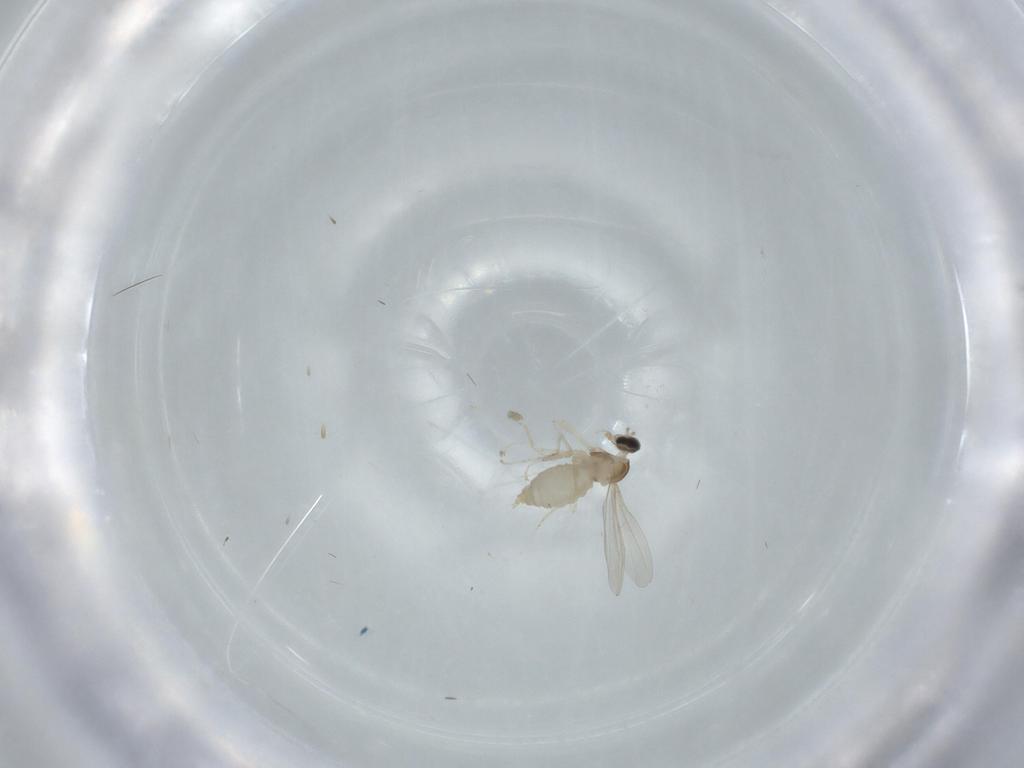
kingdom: Animalia
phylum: Arthropoda
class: Insecta
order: Diptera
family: Cecidomyiidae
